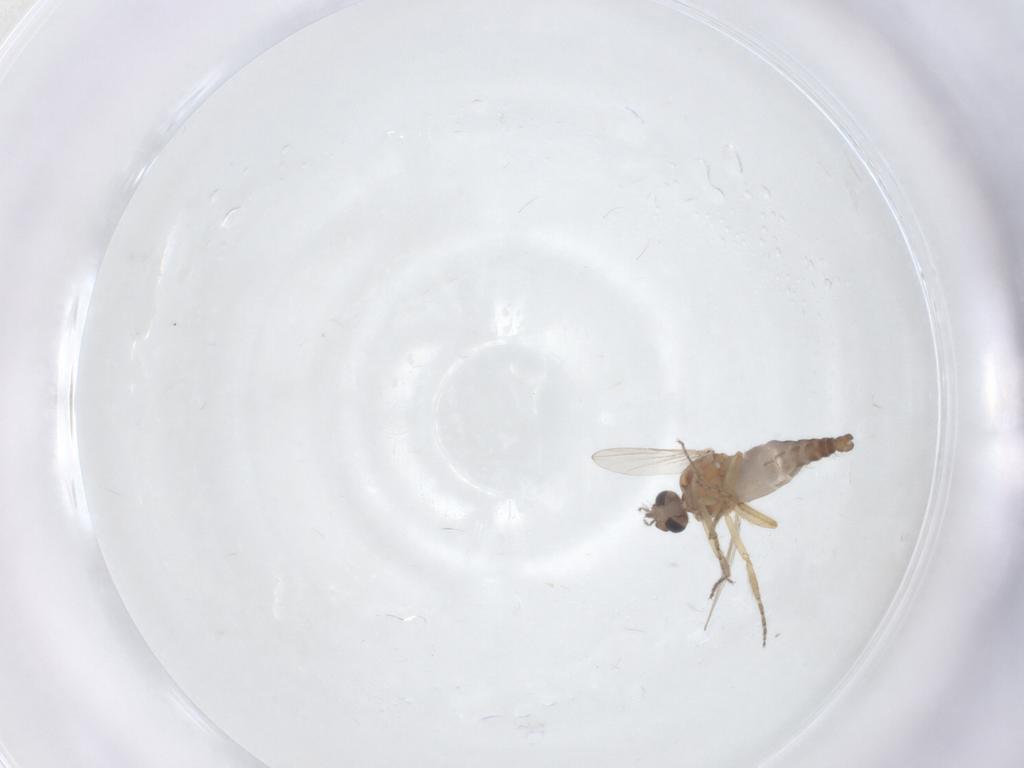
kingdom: Animalia
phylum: Arthropoda
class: Insecta
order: Diptera
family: Ceratopogonidae
